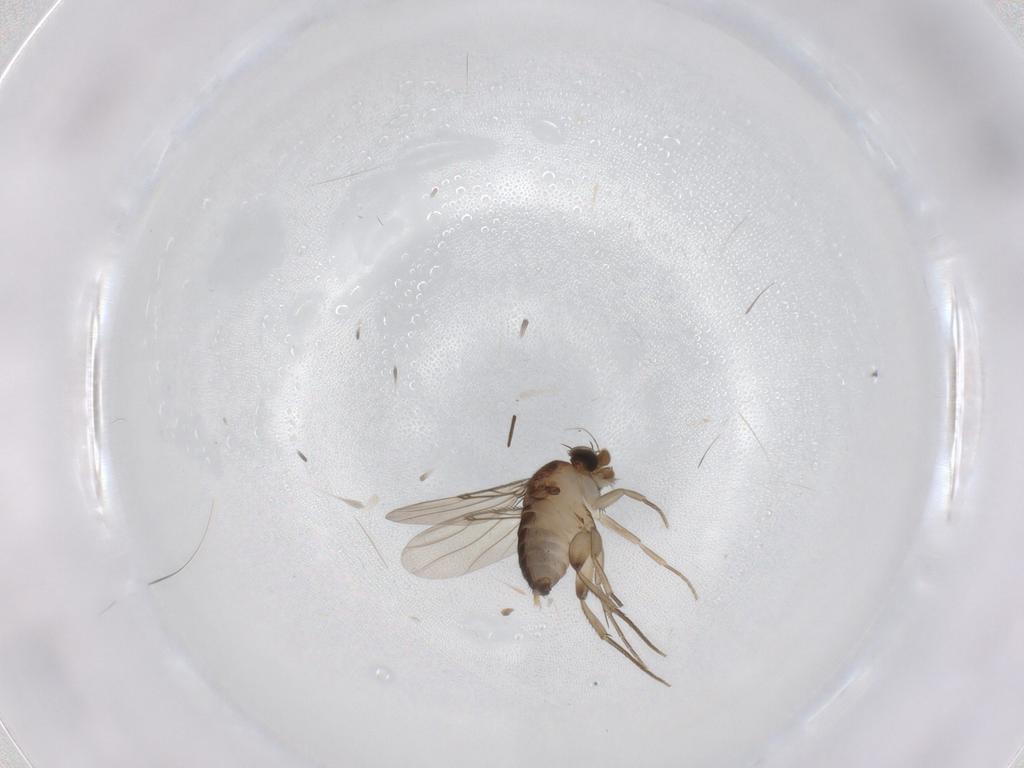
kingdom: Animalia
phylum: Arthropoda
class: Insecta
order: Diptera
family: Phoridae
